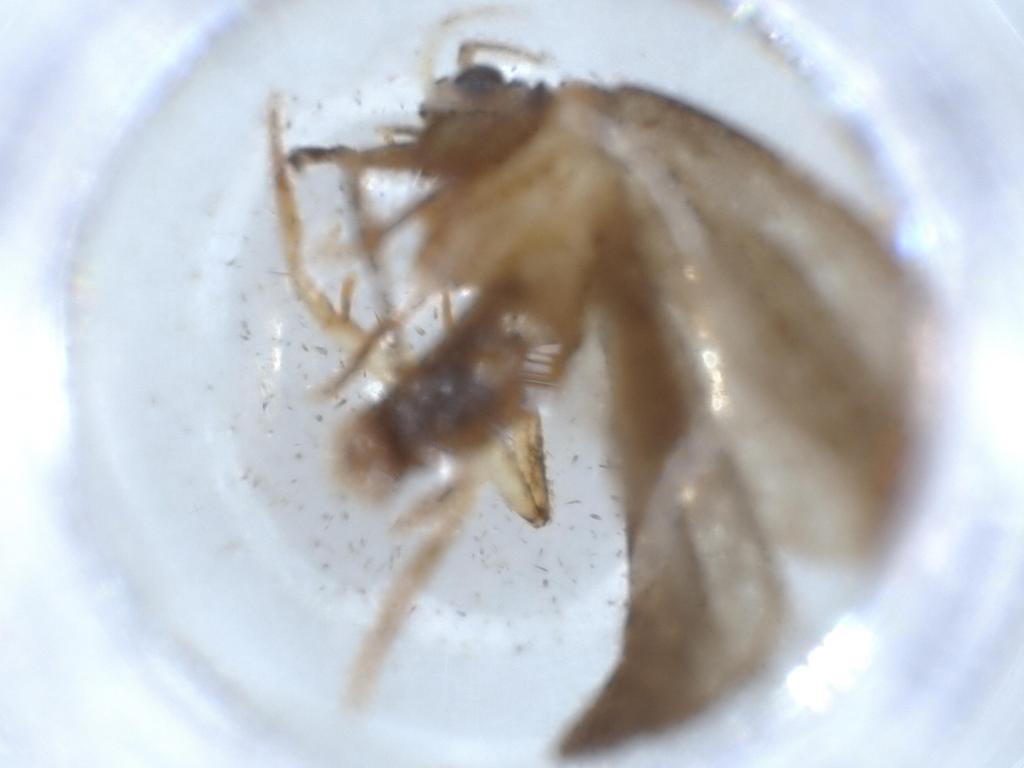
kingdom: Animalia
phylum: Arthropoda
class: Insecta
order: Lepidoptera
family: Oecophoridae
